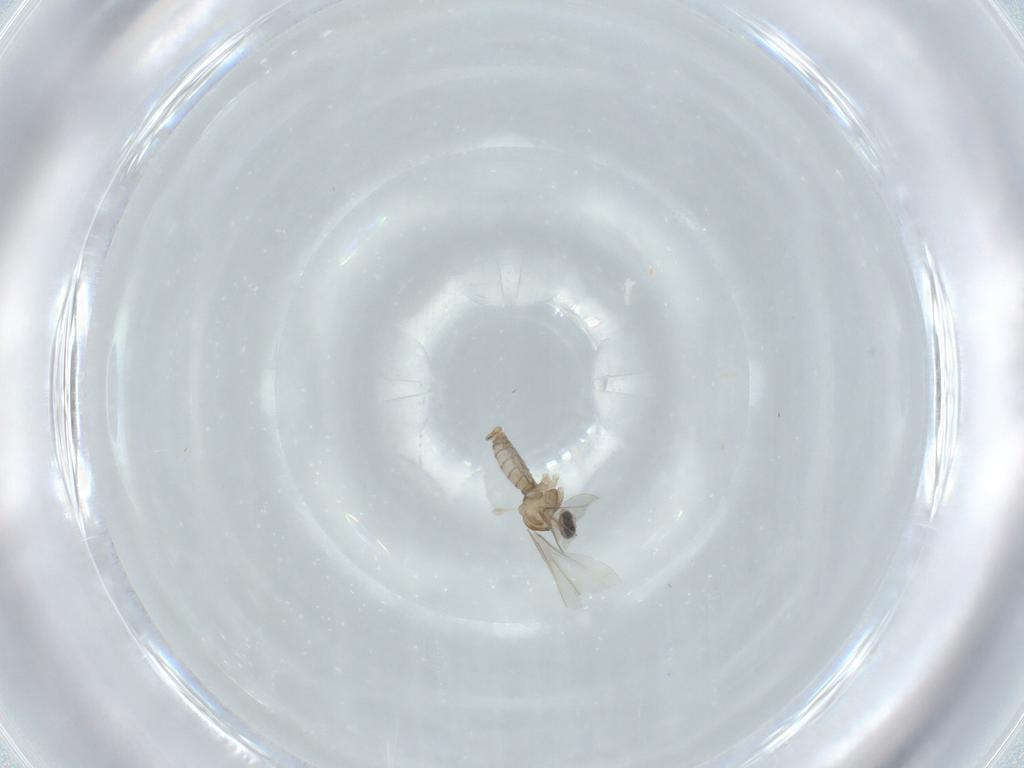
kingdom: Animalia
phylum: Arthropoda
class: Insecta
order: Diptera
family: Cecidomyiidae
